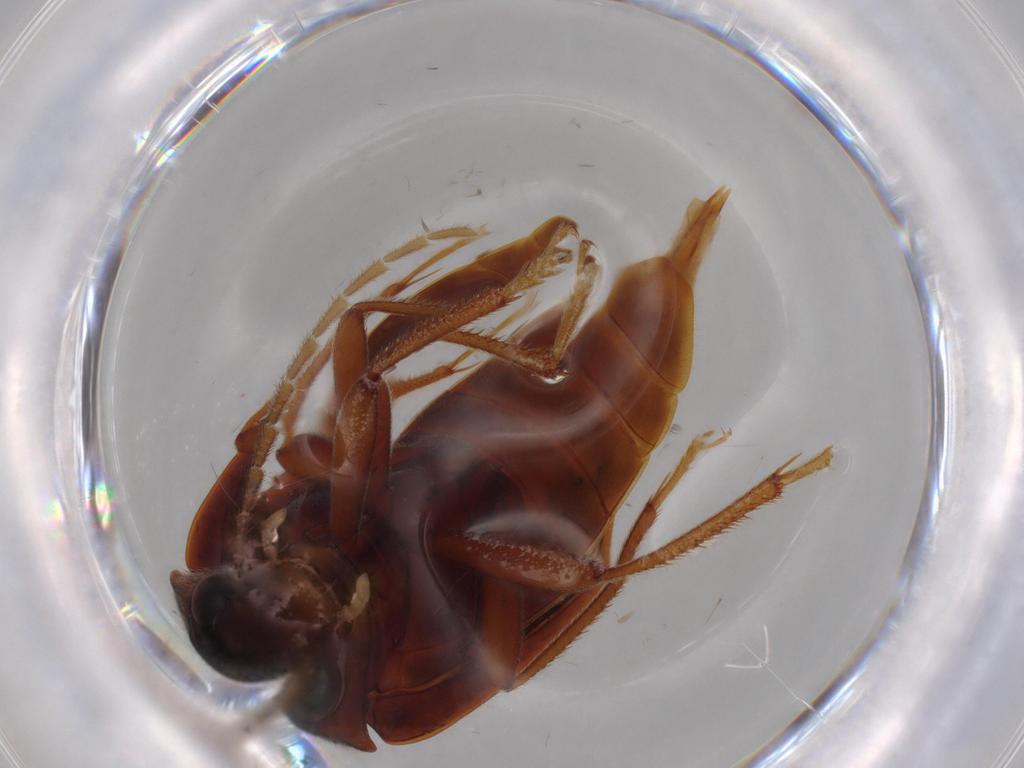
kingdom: Animalia
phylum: Arthropoda
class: Insecta
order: Coleoptera
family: Ptilodactylidae
